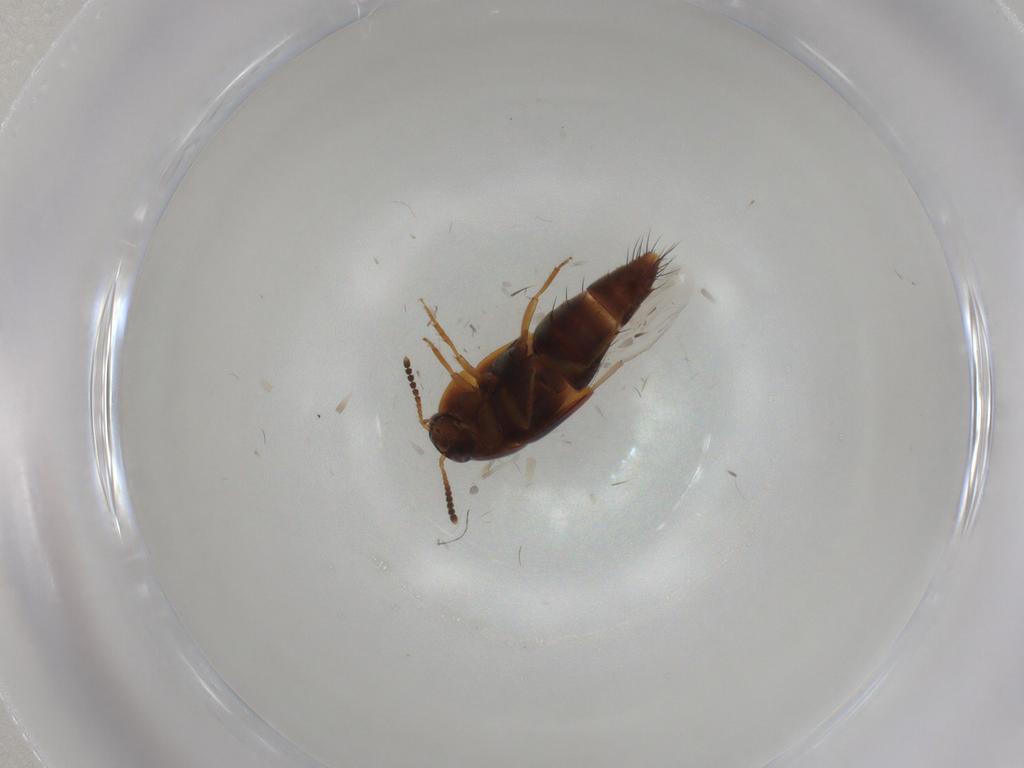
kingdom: Animalia
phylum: Arthropoda
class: Insecta
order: Coleoptera
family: Staphylinidae
